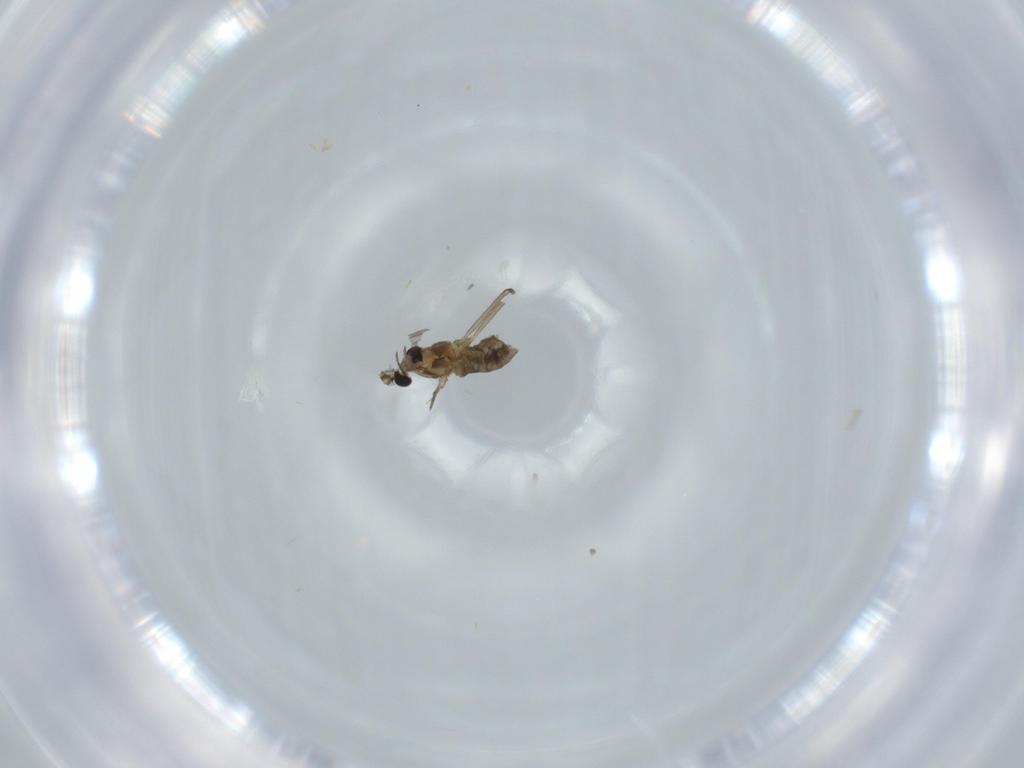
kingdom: Animalia
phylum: Arthropoda
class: Insecta
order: Diptera
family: Chironomidae
